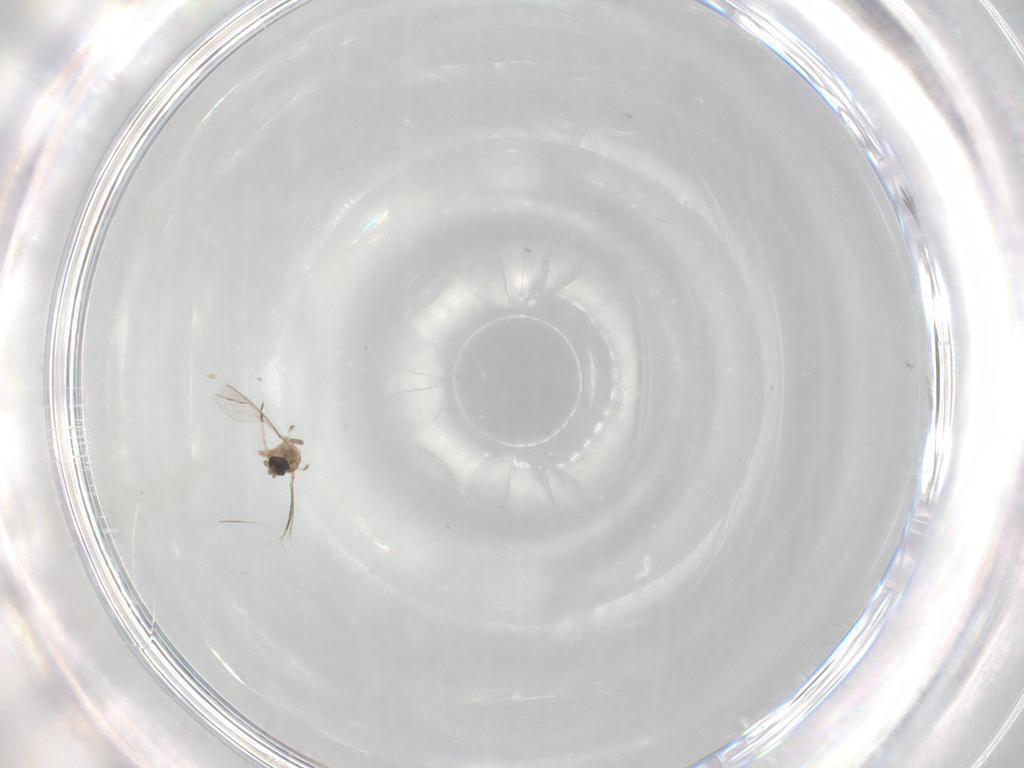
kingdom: Animalia
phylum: Arthropoda
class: Insecta
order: Diptera
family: Cecidomyiidae
